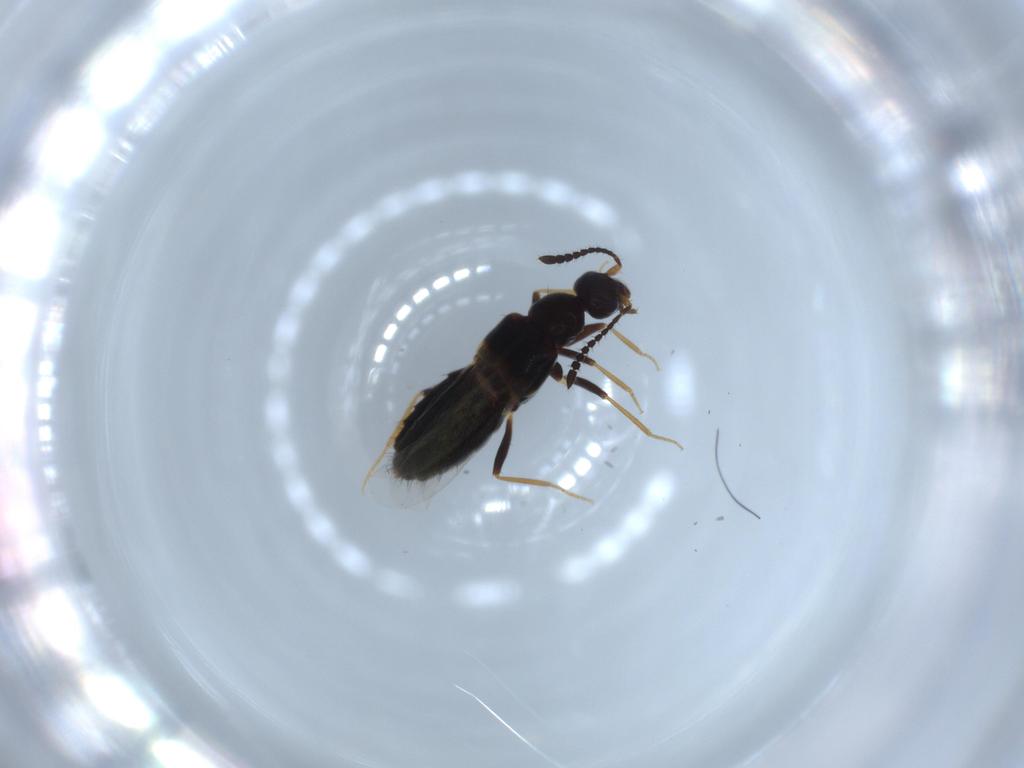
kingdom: Animalia
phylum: Arthropoda
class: Insecta
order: Coleoptera
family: Staphylinidae
